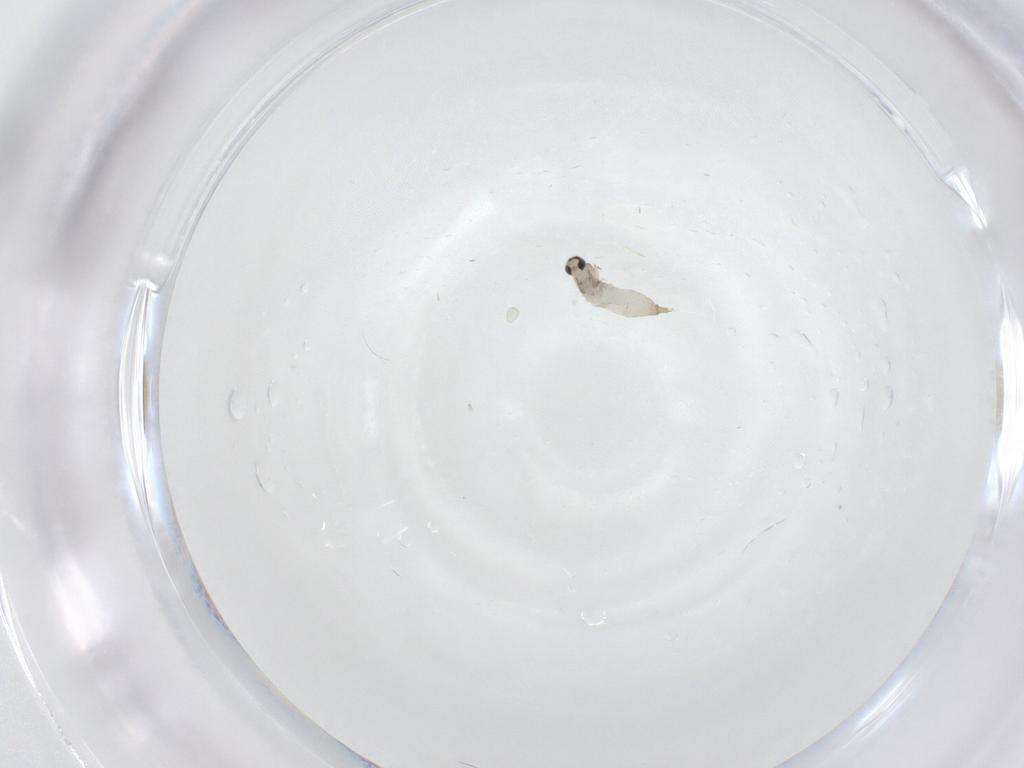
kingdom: Animalia
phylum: Arthropoda
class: Insecta
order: Diptera
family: Cecidomyiidae
